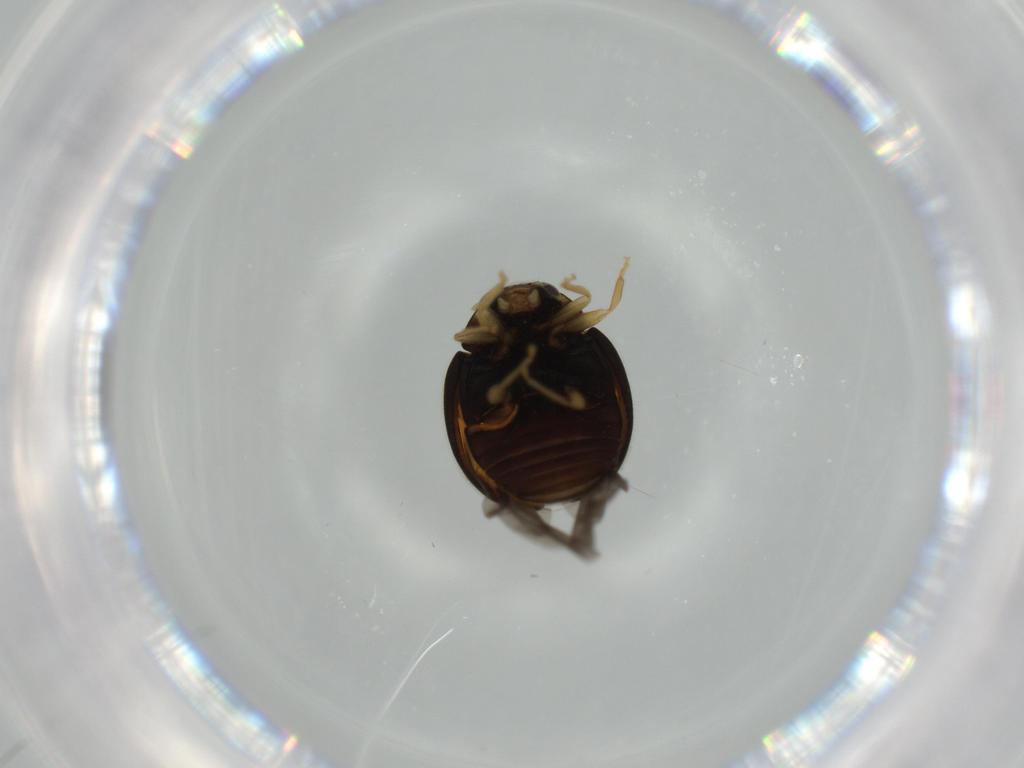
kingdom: Animalia
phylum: Arthropoda
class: Insecta
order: Coleoptera
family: Coccinellidae
